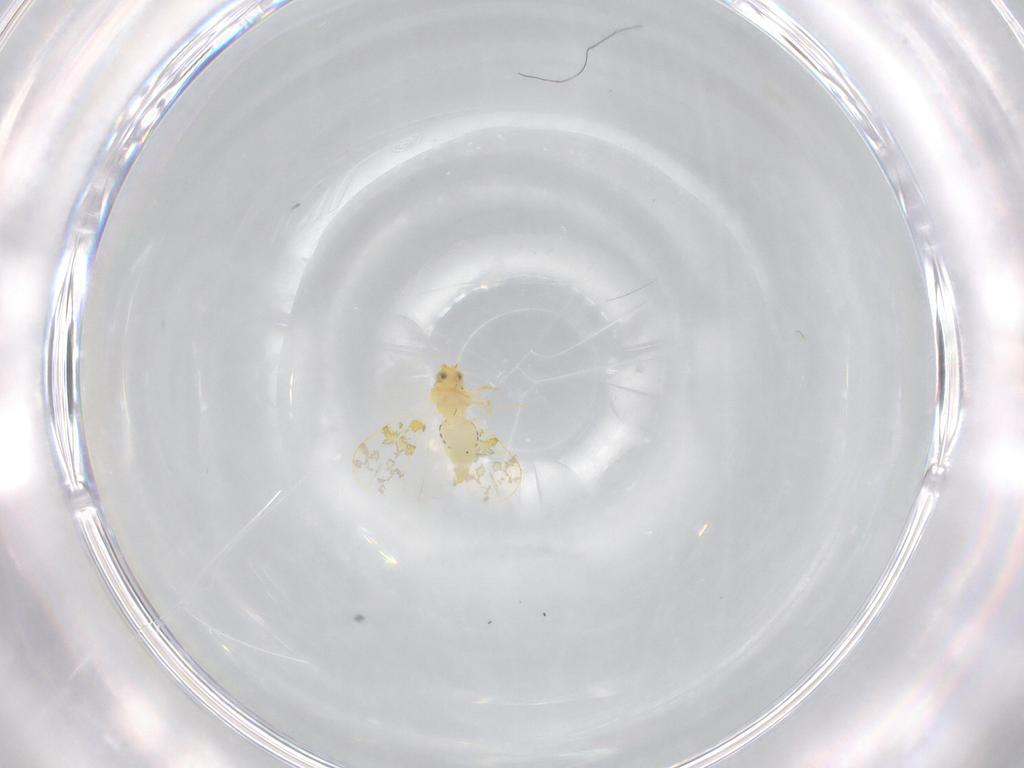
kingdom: Animalia
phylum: Arthropoda
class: Insecta
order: Hemiptera
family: Aleyrodidae
